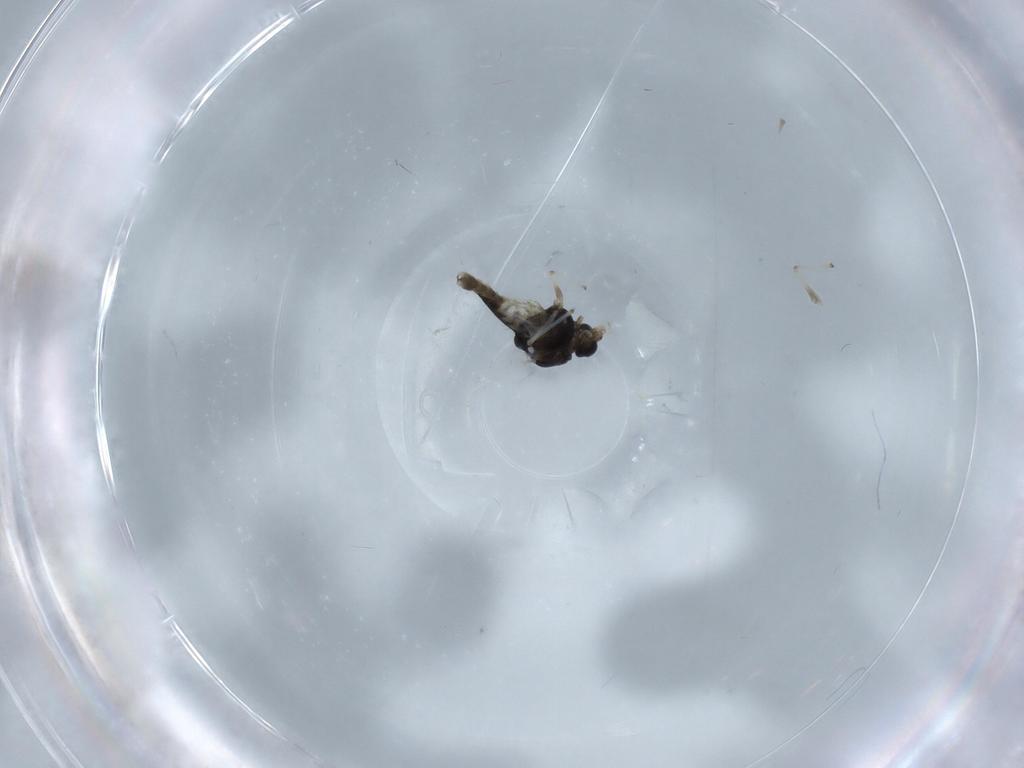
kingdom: Animalia
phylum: Arthropoda
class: Insecta
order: Diptera
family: Chironomidae
